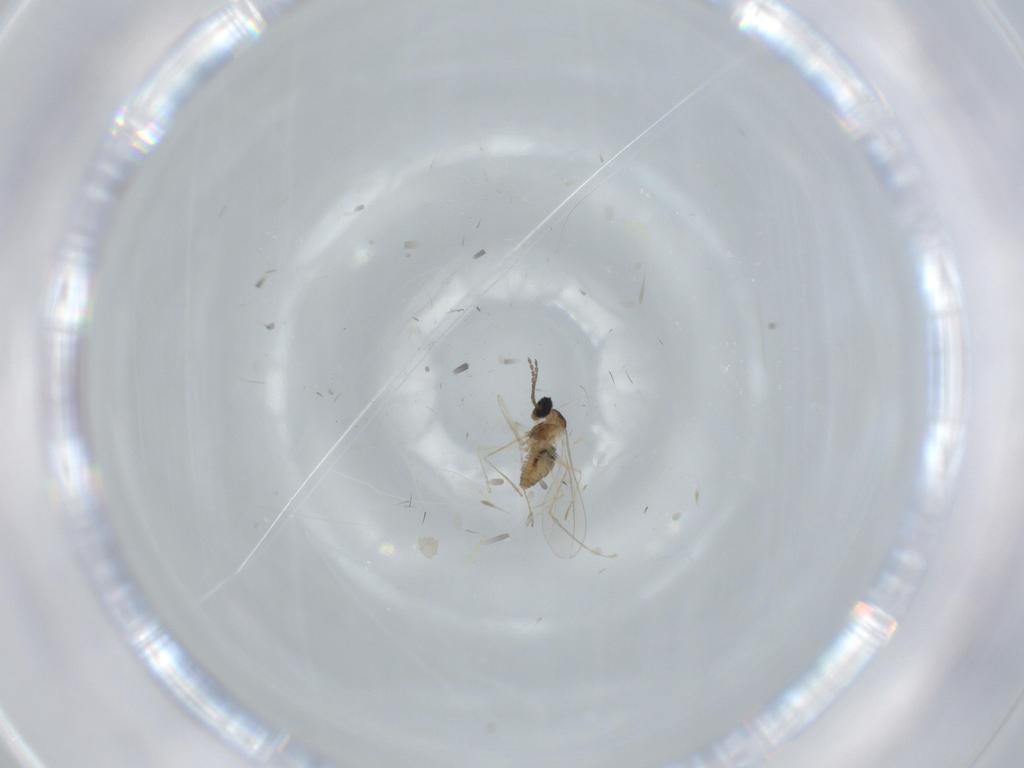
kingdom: Animalia
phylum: Arthropoda
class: Insecta
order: Diptera
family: Cecidomyiidae
